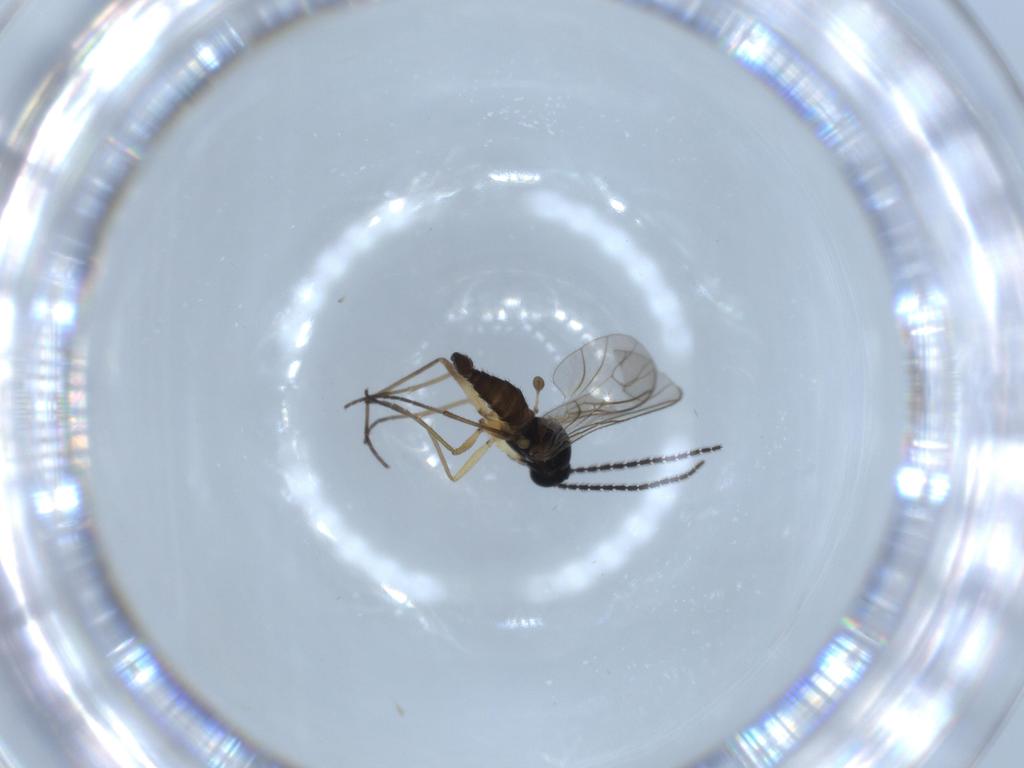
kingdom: Animalia
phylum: Arthropoda
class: Insecta
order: Diptera
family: Sciaridae
